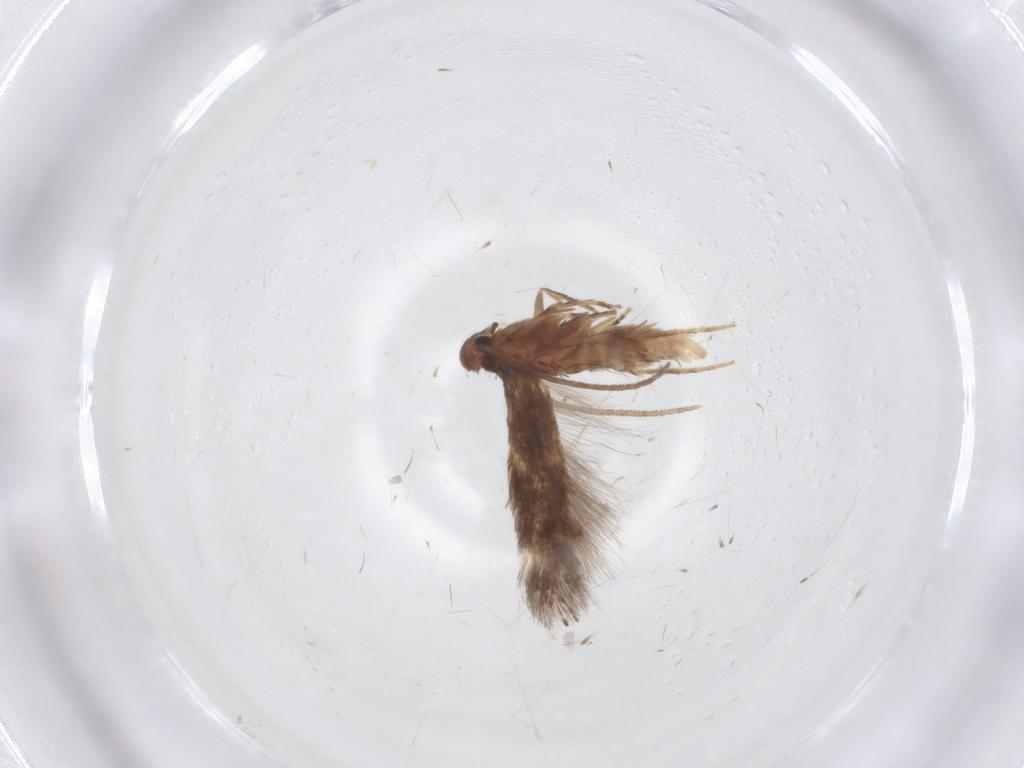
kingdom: Animalia
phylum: Arthropoda
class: Insecta
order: Lepidoptera
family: Gelechiidae
